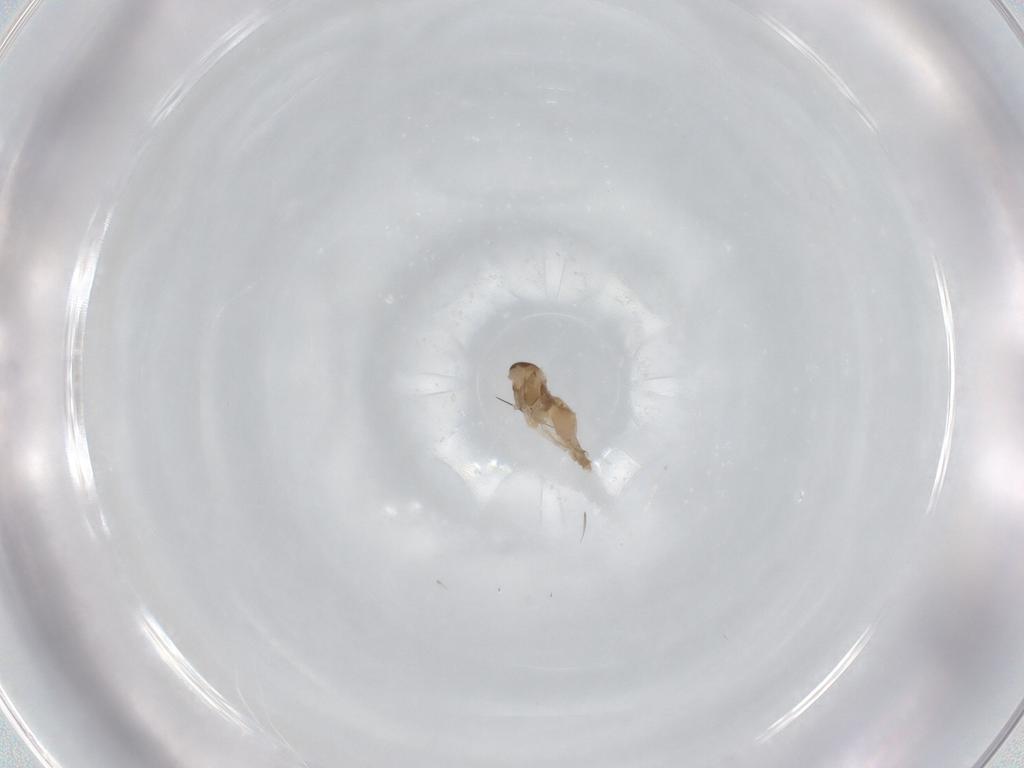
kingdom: Animalia
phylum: Arthropoda
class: Insecta
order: Diptera
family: Cecidomyiidae
